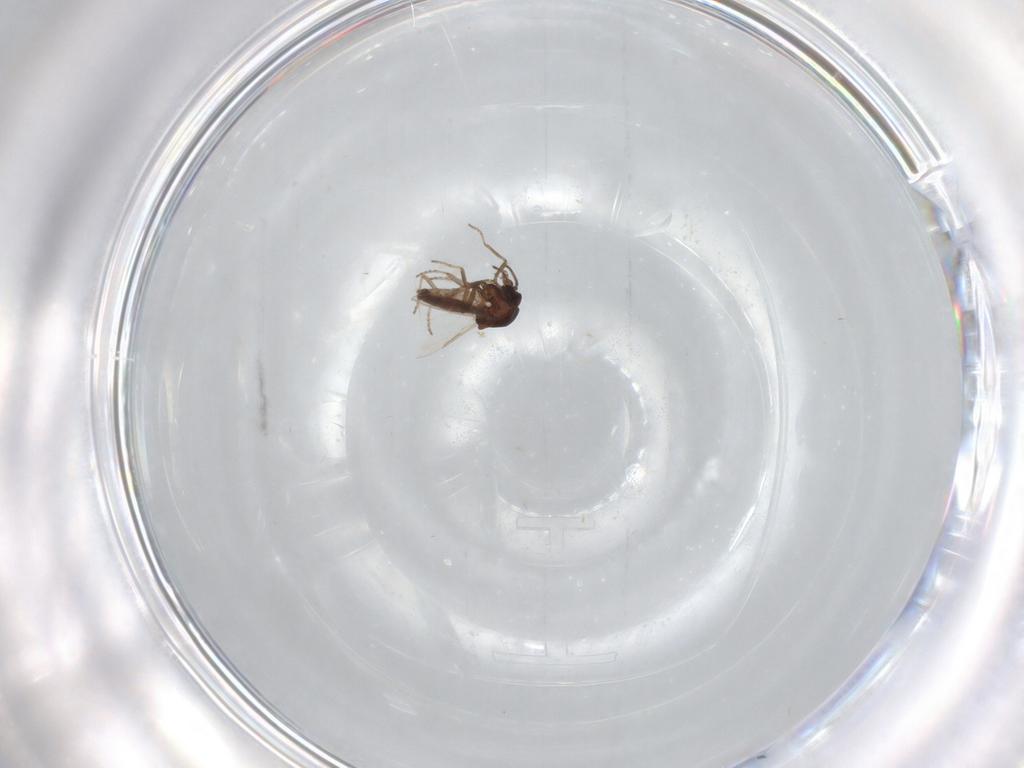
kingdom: Animalia
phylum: Arthropoda
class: Insecta
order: Diptera
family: Ceratopogonidae
